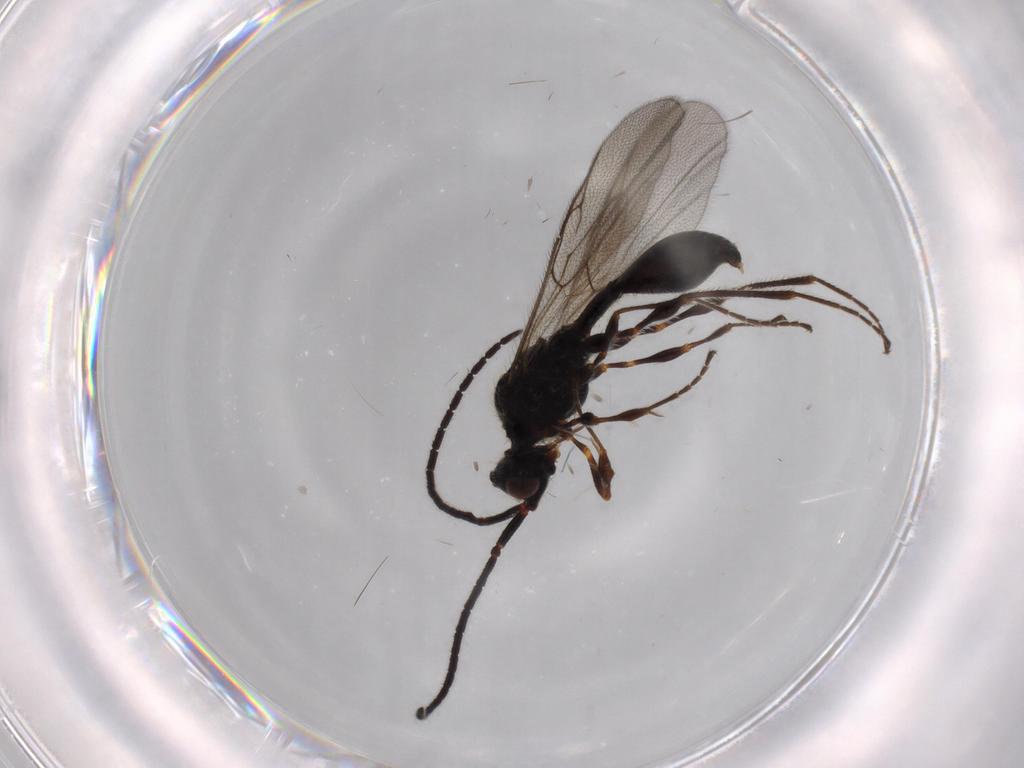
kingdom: Animalia
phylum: Arthropoda
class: Insecta
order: Hymenoptera
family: Diapriidae
